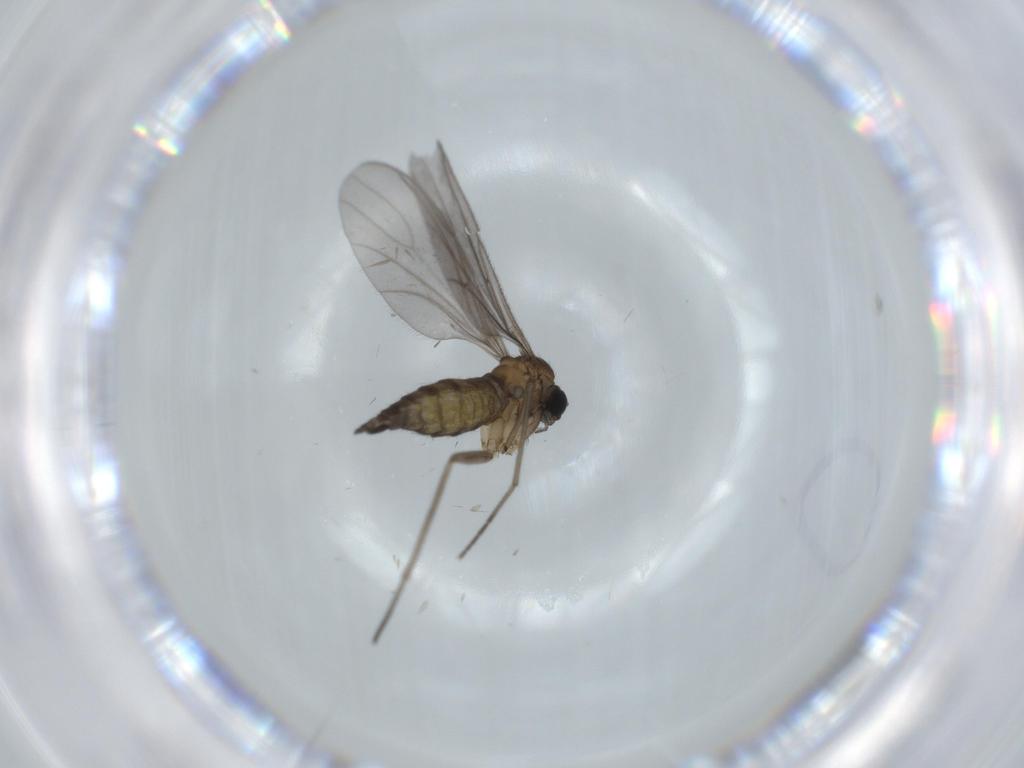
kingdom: Animalia
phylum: Arthropoda
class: Insecta
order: Diptera
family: Sciaridae
